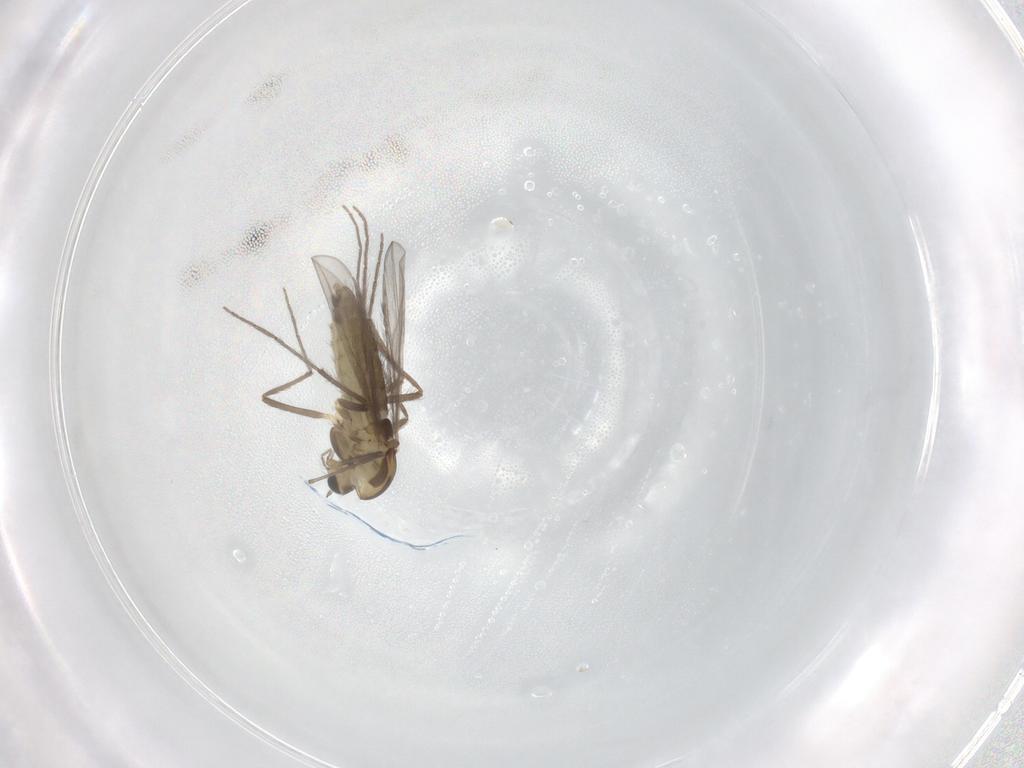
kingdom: Animalia
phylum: Arthropoda
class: Insecta
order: Diptera
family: Chironomidae
